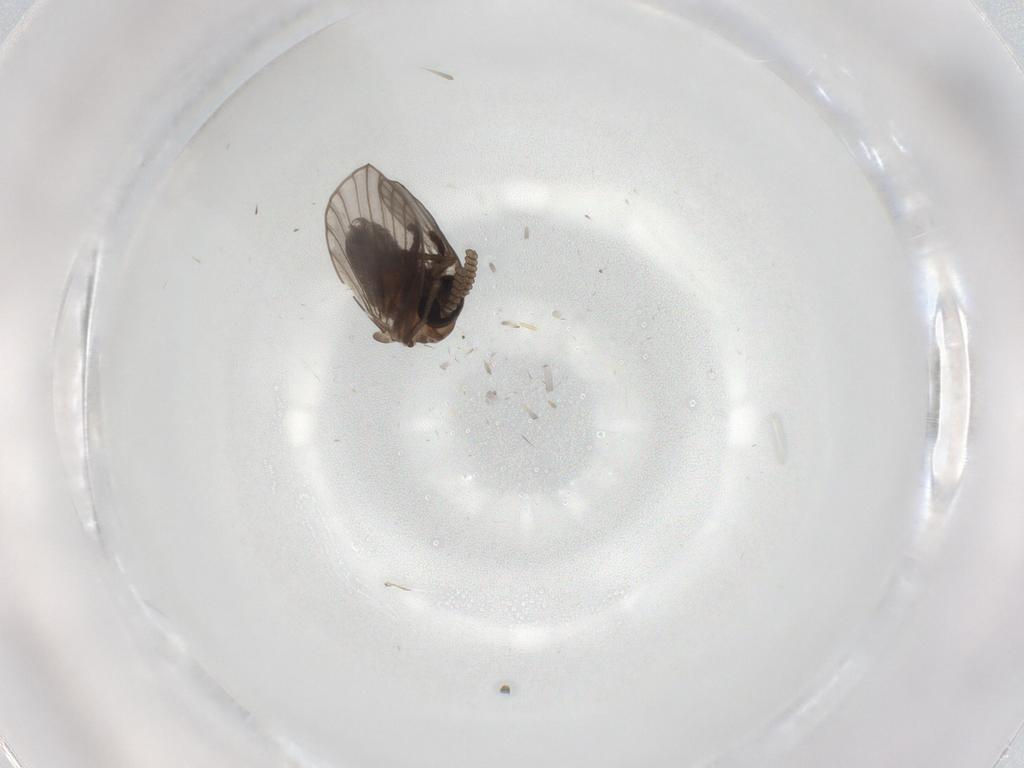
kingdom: Animalia
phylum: Arthropoda
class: Insecta
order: Diptera
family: Psychodidae
